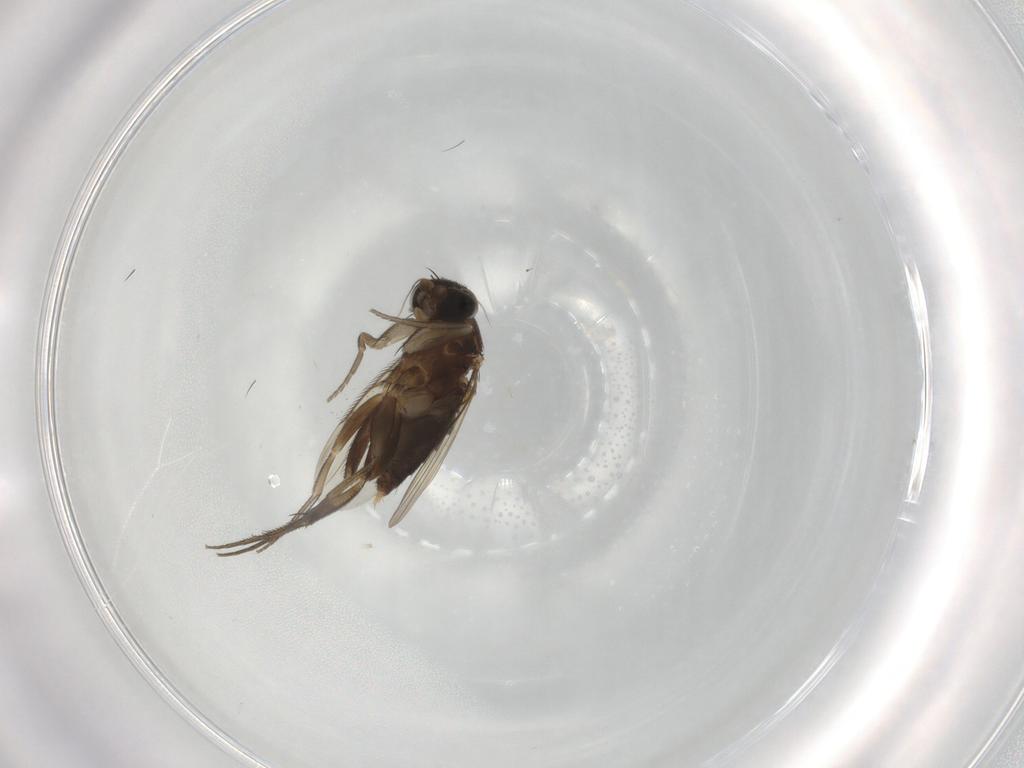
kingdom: Animalia
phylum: Arthropoda
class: Insecta
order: Diptera
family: Phoridae
